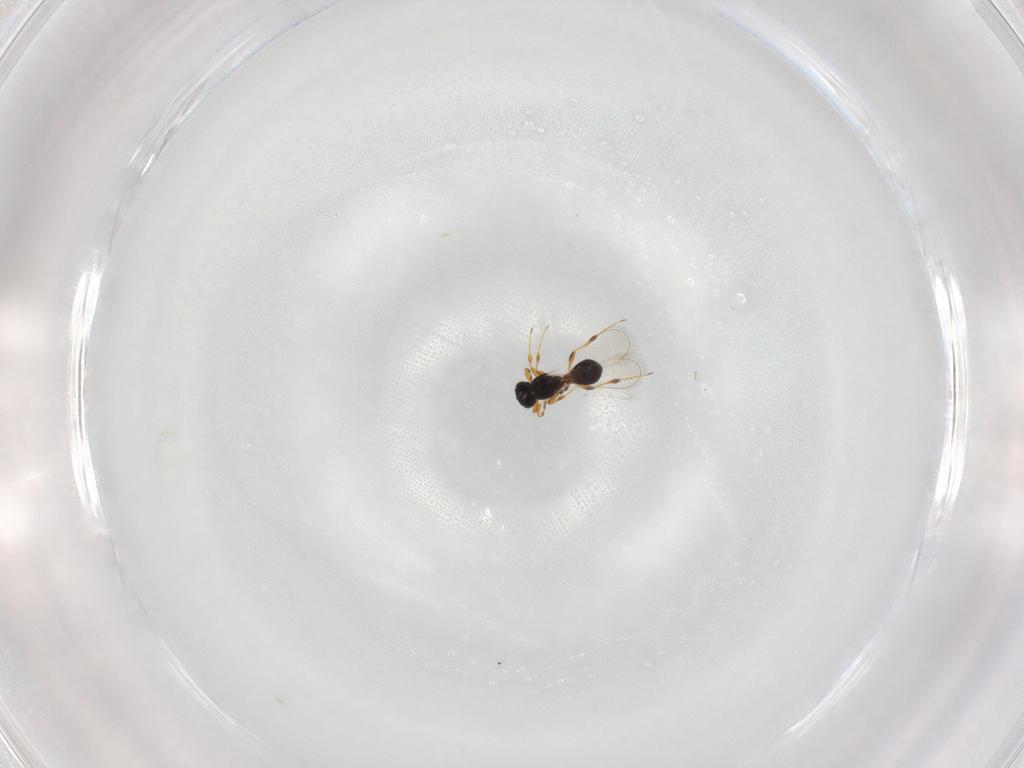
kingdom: Animalia
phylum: Arthropoda
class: Insecta
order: Hymenoptera
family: Platygastridae
